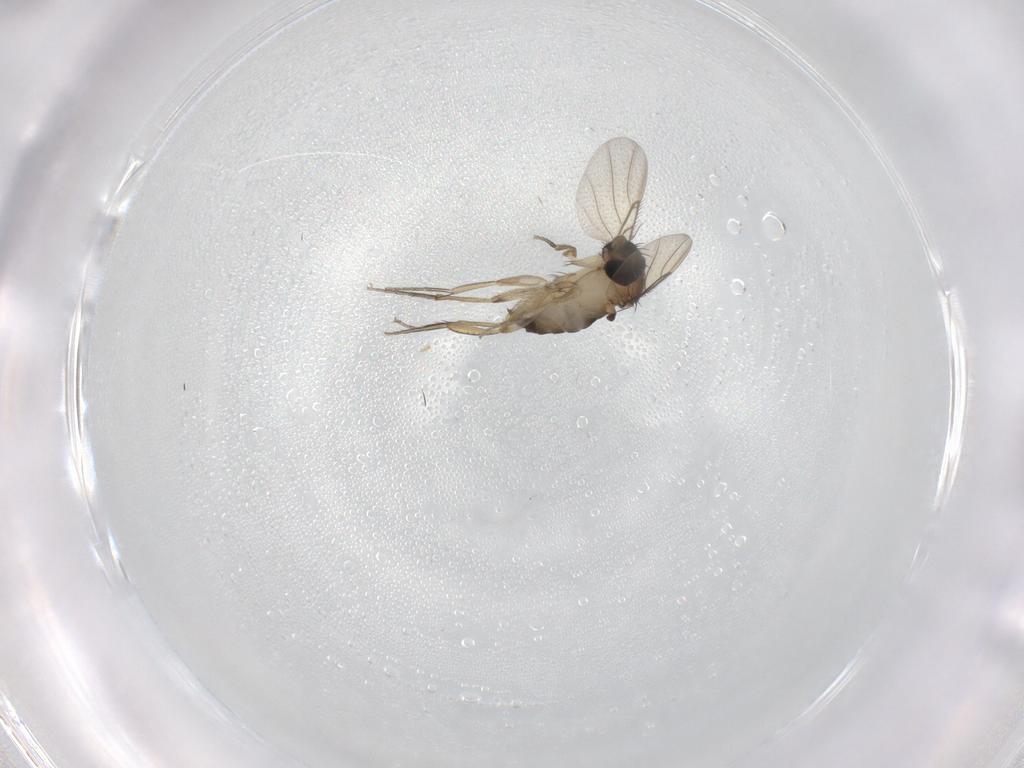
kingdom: Animalia
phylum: Arthropoda
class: Insecta
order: Diptera
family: Phoridae
